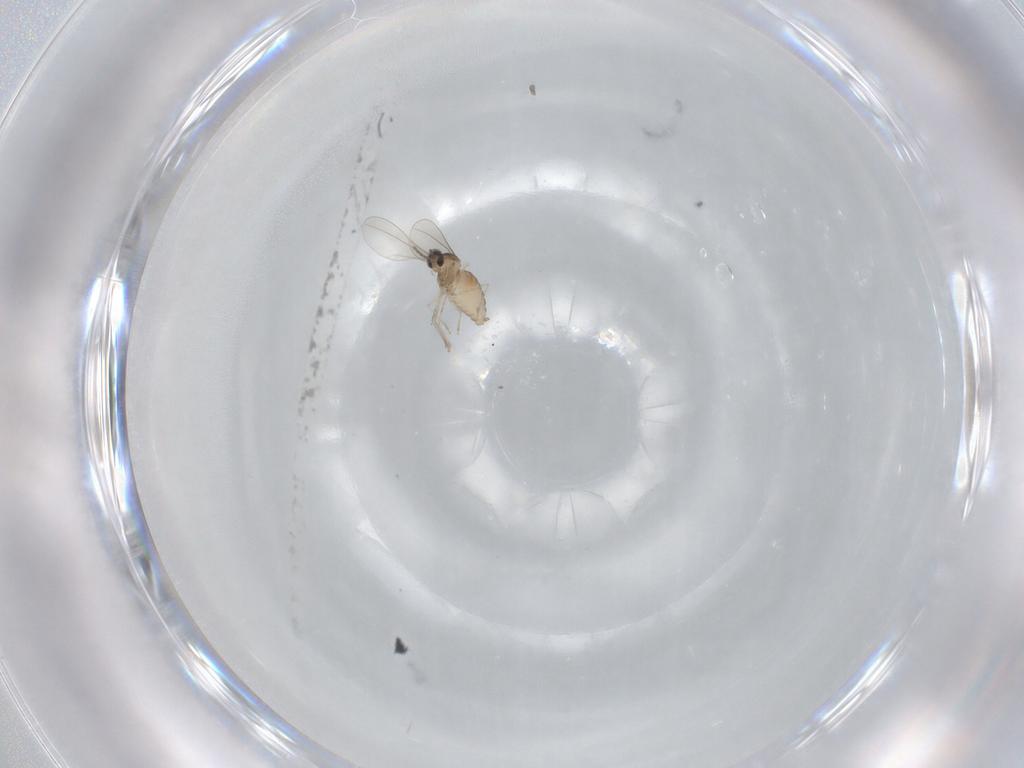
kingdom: Animalia
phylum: Arthropoda
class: Insecta
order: Diptera
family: Cecidomyiidae
